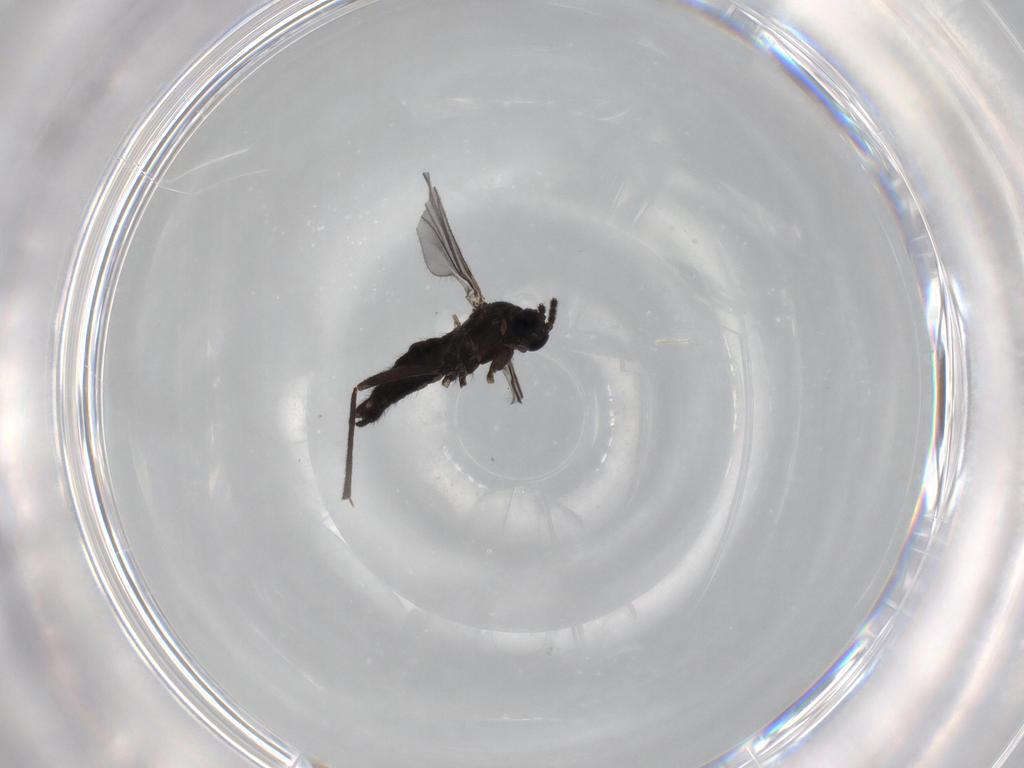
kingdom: Animalia
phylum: Arthropoda
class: Insecta
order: Diptera
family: Sciaridae
